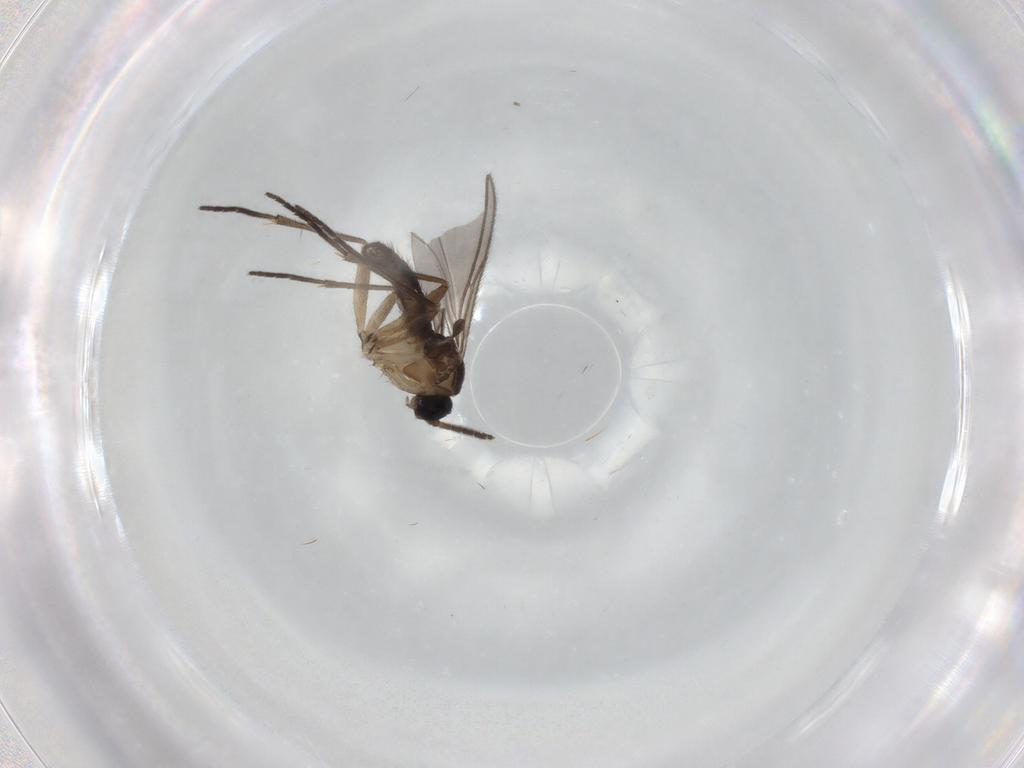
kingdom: Animalia
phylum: Arthropoda
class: Insecta
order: Diptera
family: Sciaridae
